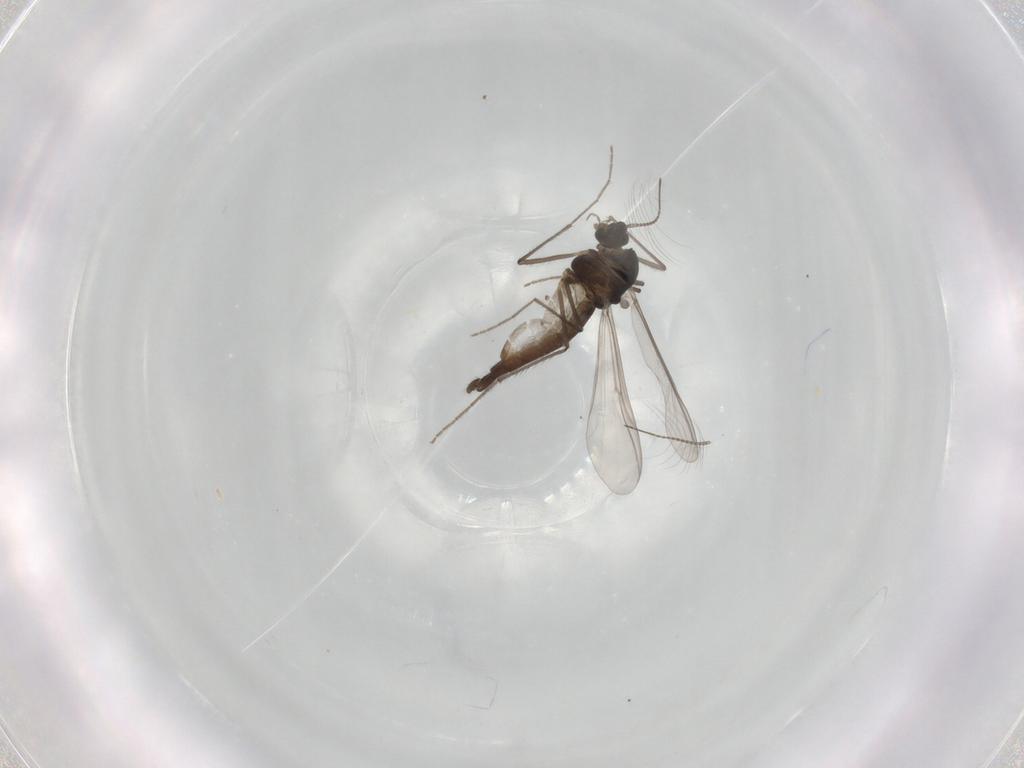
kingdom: Animalia
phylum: Arthropoda
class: Insecta
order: Diptera
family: Chironomidae
